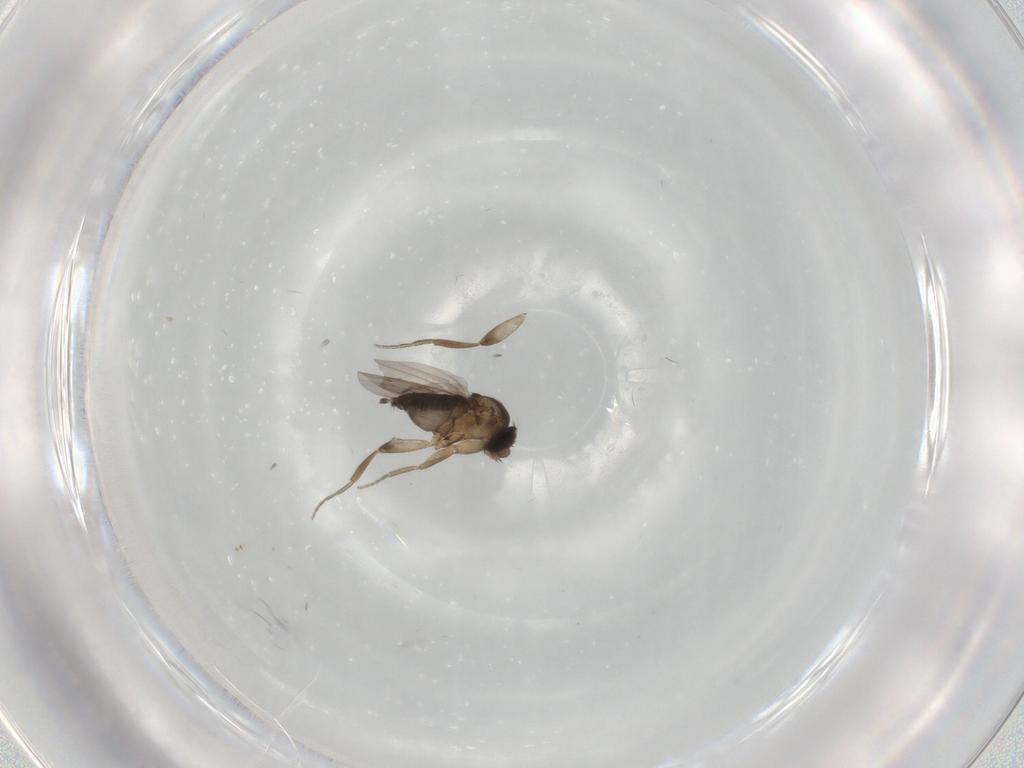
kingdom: Animalia
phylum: Arthropoda
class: Insecta
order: Diptera
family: Phoridae
